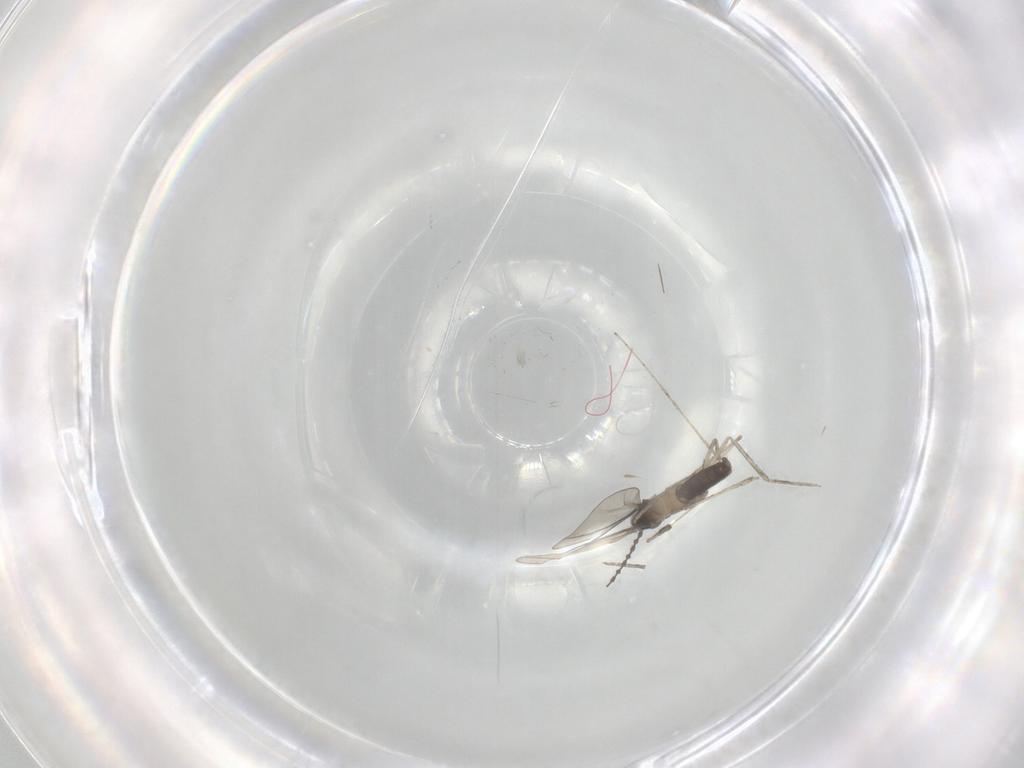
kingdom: Animalia
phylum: Arthropoda
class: Insecta
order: Diptera
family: Cecidomyiidae
